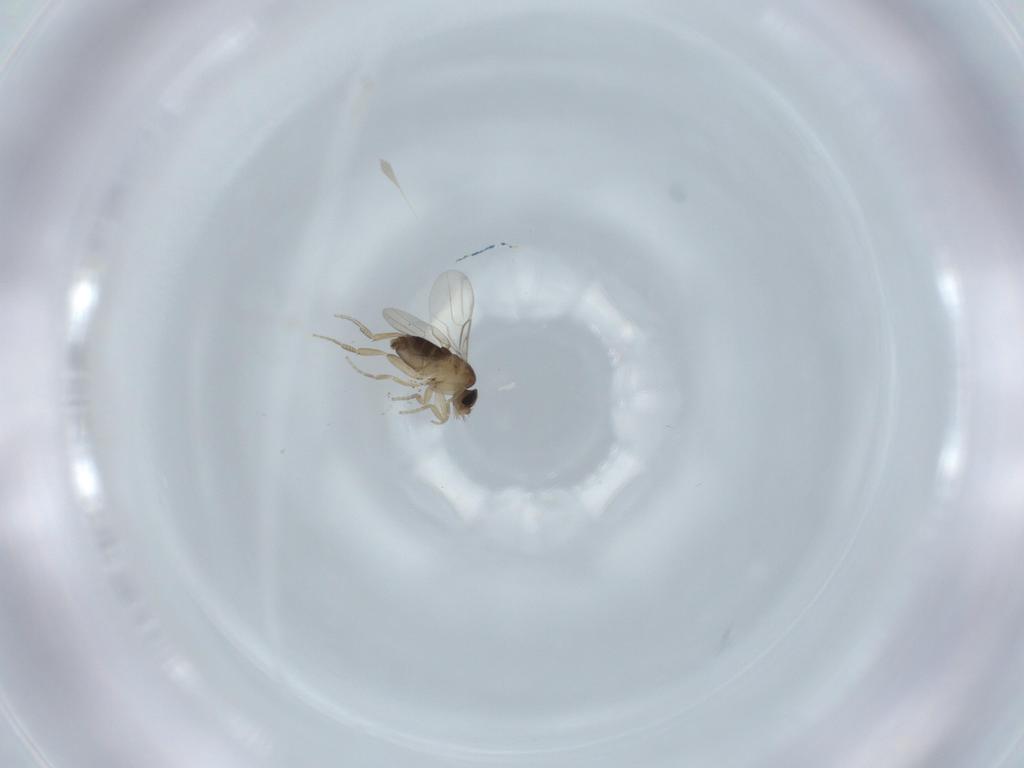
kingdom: Animalia
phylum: Arthropoda
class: Insecta
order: Diptera
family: Phoridae
